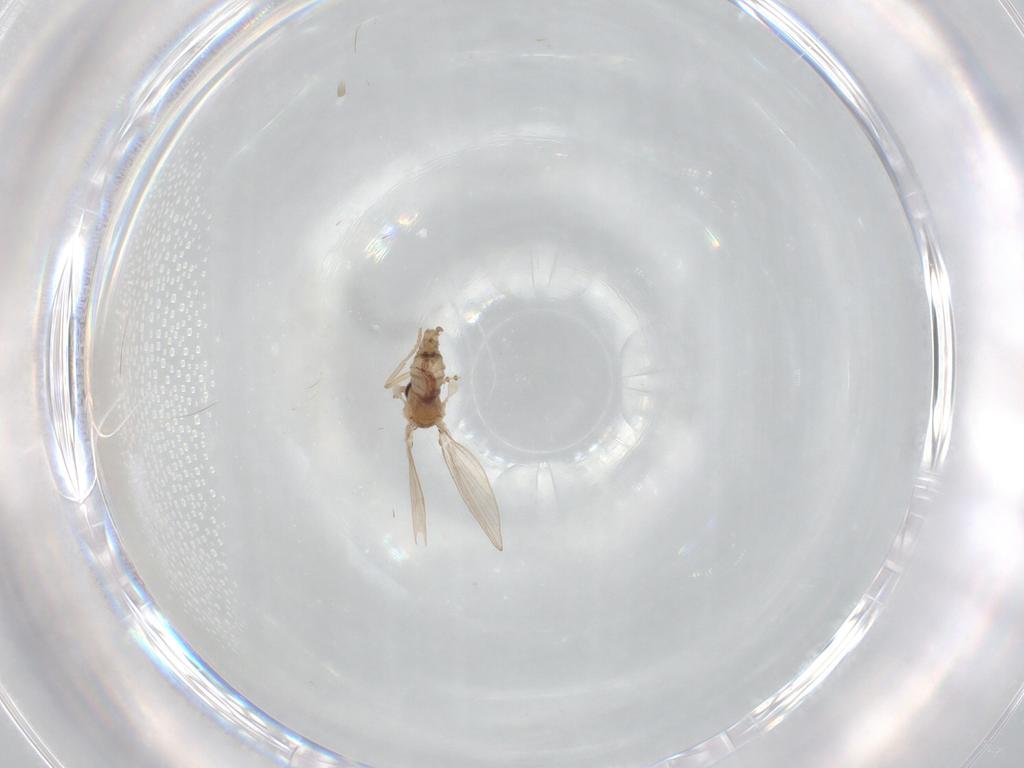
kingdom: Animalia
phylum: Arthropoda
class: Insecta
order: Diptera
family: Psychodidae
